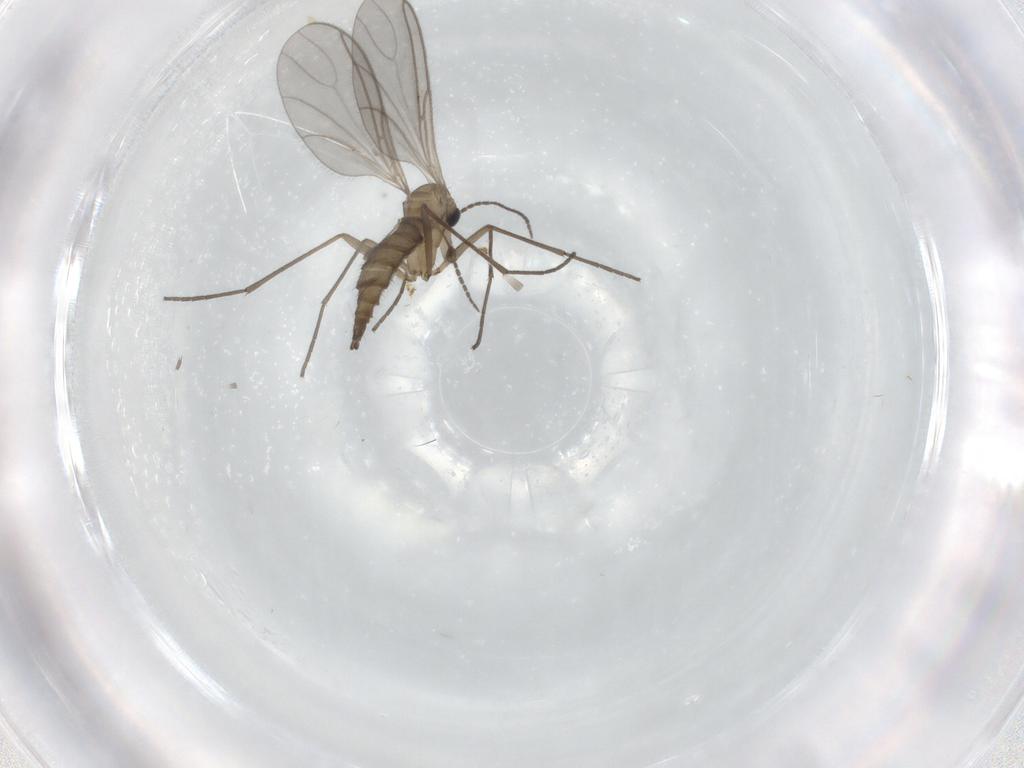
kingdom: Animalia
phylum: Arthropoda
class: Insecta
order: Diptera
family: Sciaridae
